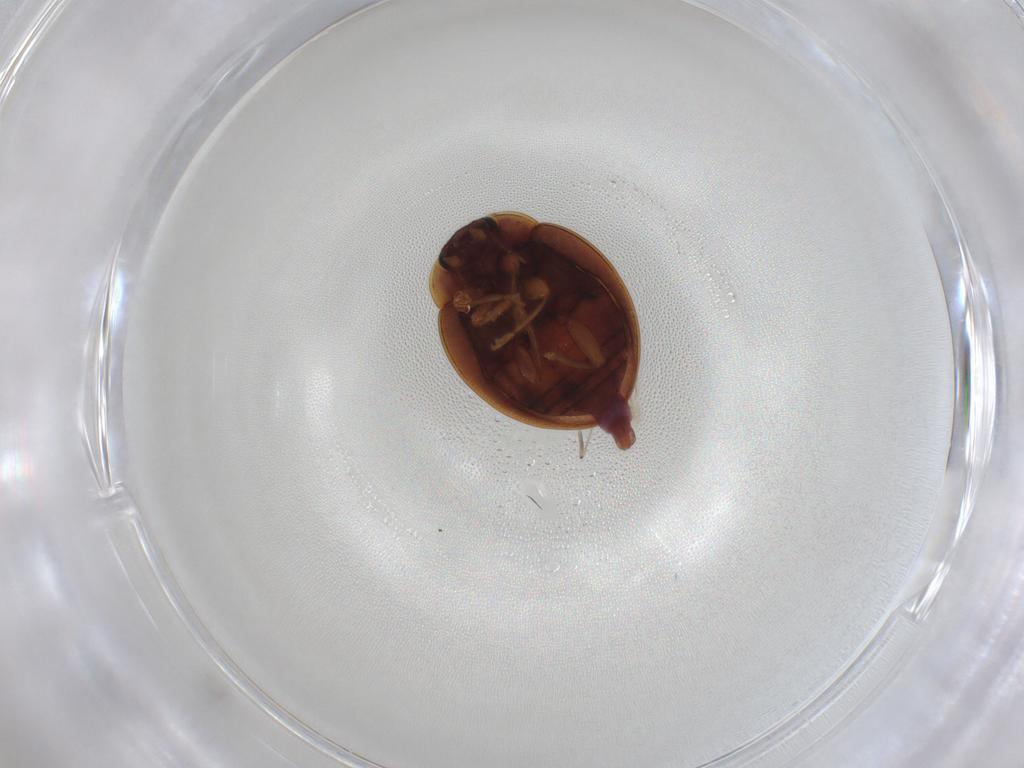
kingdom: Animalia
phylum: Arthropoda
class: Insecta
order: Coleoptera
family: Coccinellidae
